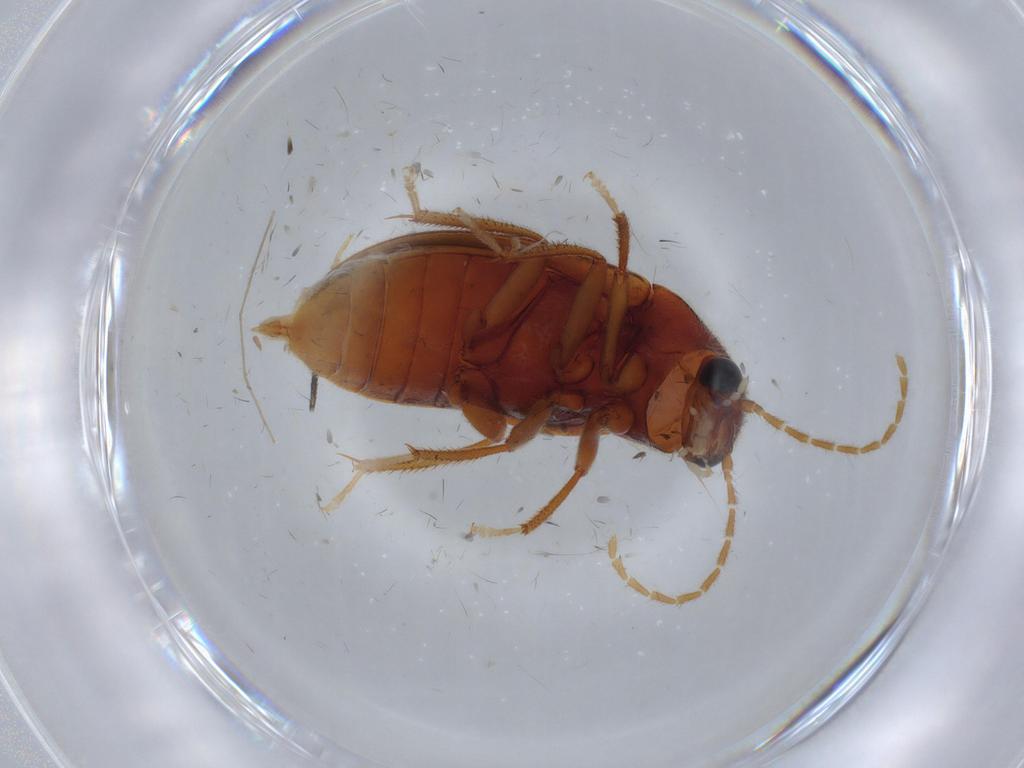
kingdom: Animalia
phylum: Arthropoda
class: Insecta
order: Coleoptera
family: Ptilodactylidae
